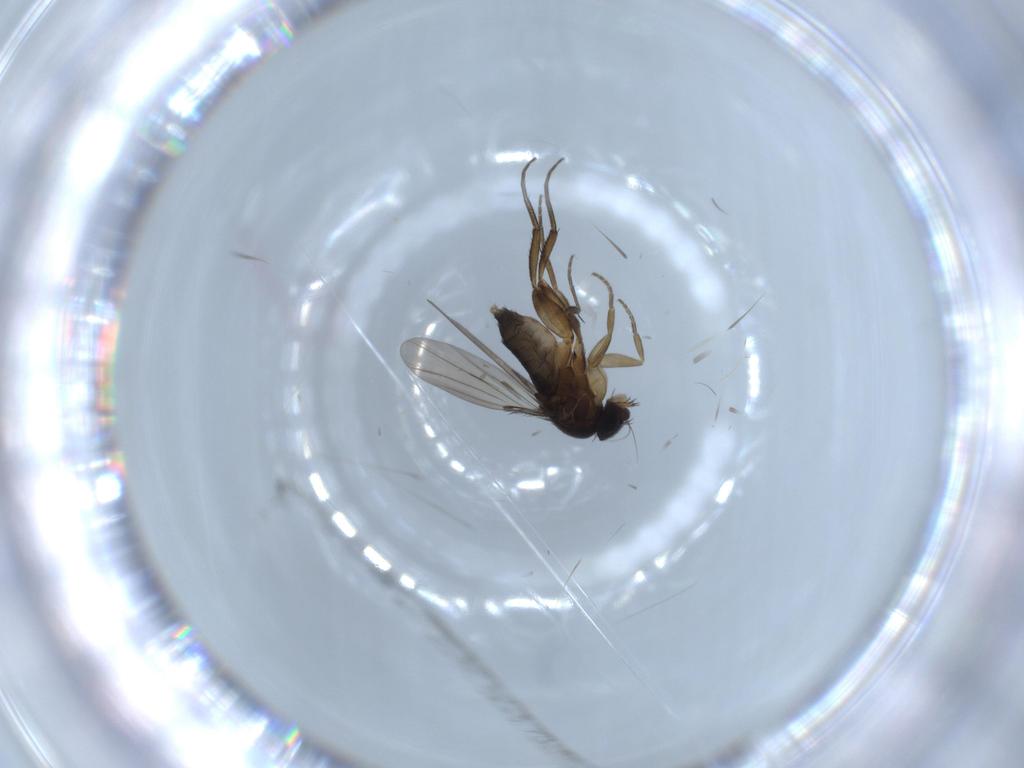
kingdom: Animalia
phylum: Arthropoda
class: Insecta
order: Diptera
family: Phoridae
